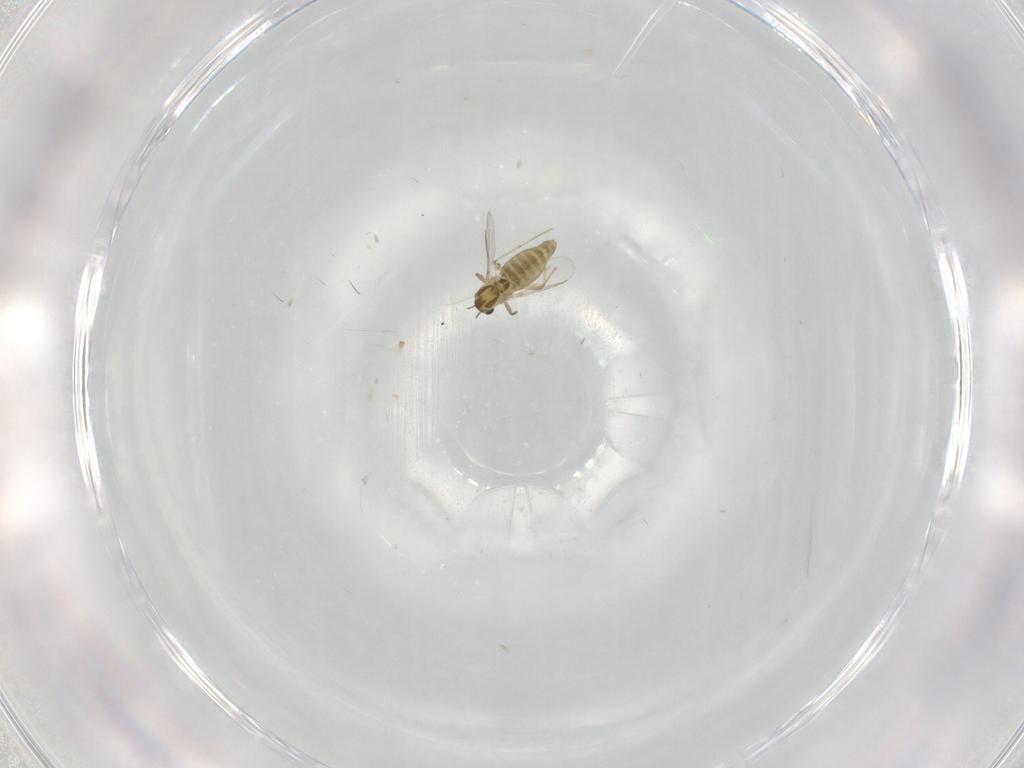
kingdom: Animalia
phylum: Arthropoda
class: Insecta
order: Diptera
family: Chironomidae
